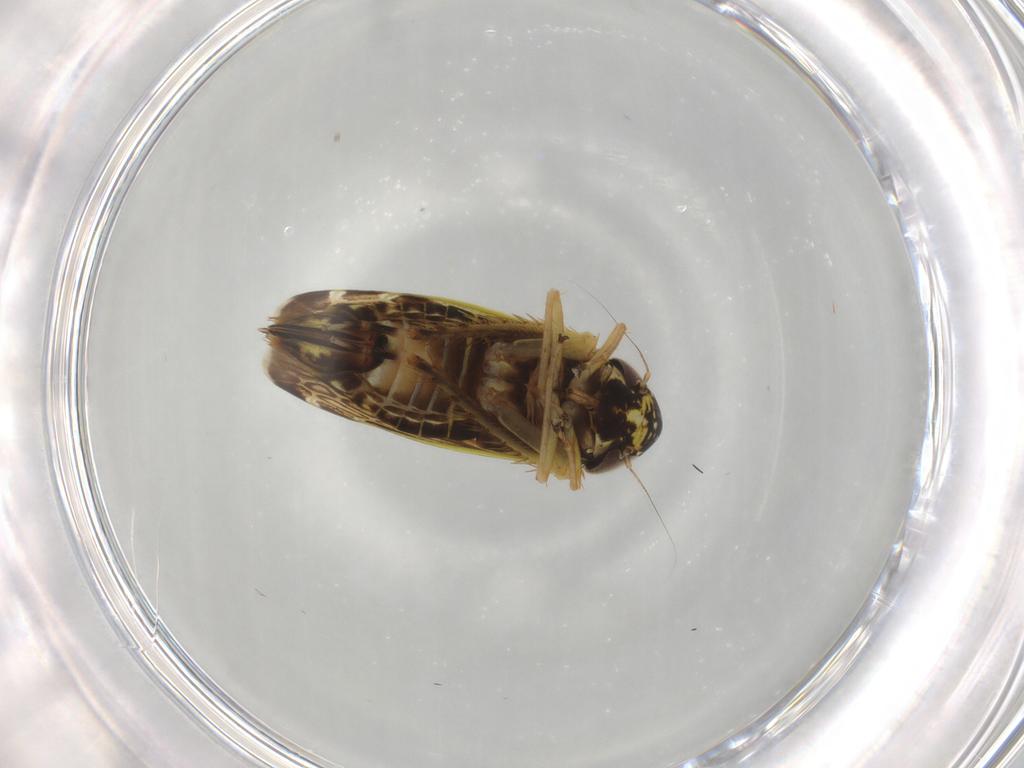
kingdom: Animalia
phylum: Arthropoda
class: Insecta
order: Hemiptera
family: Cicadellidae
